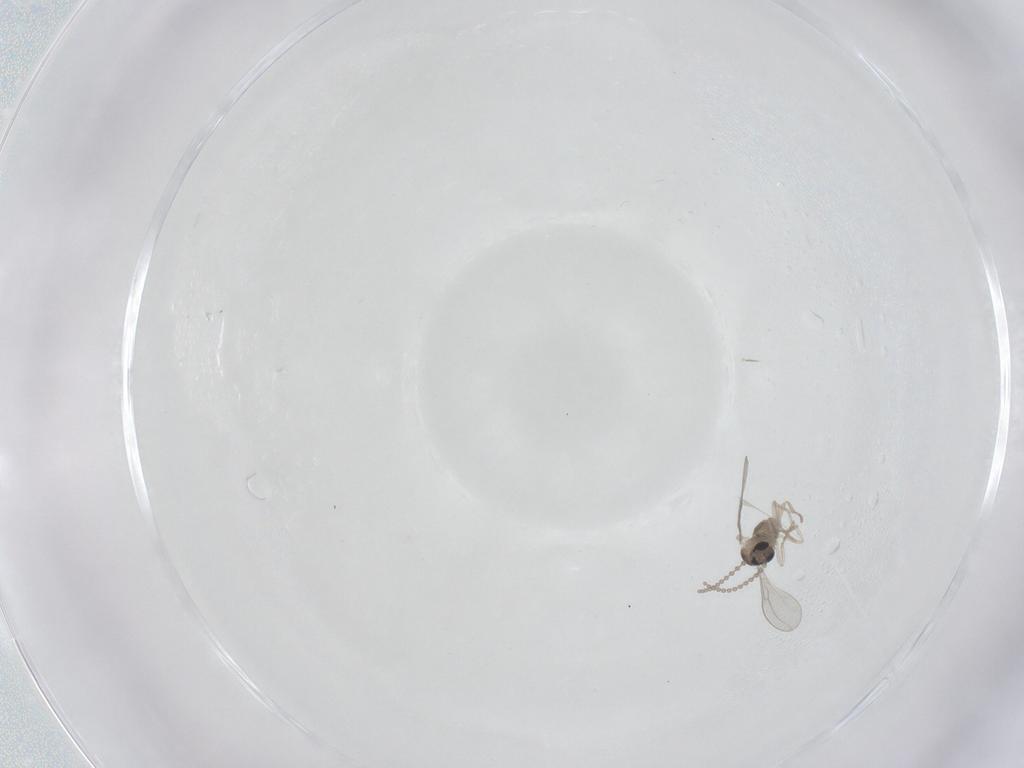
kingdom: Animalia
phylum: Arthropoda
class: Insecta
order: Diptera
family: Cecidomyiidae
